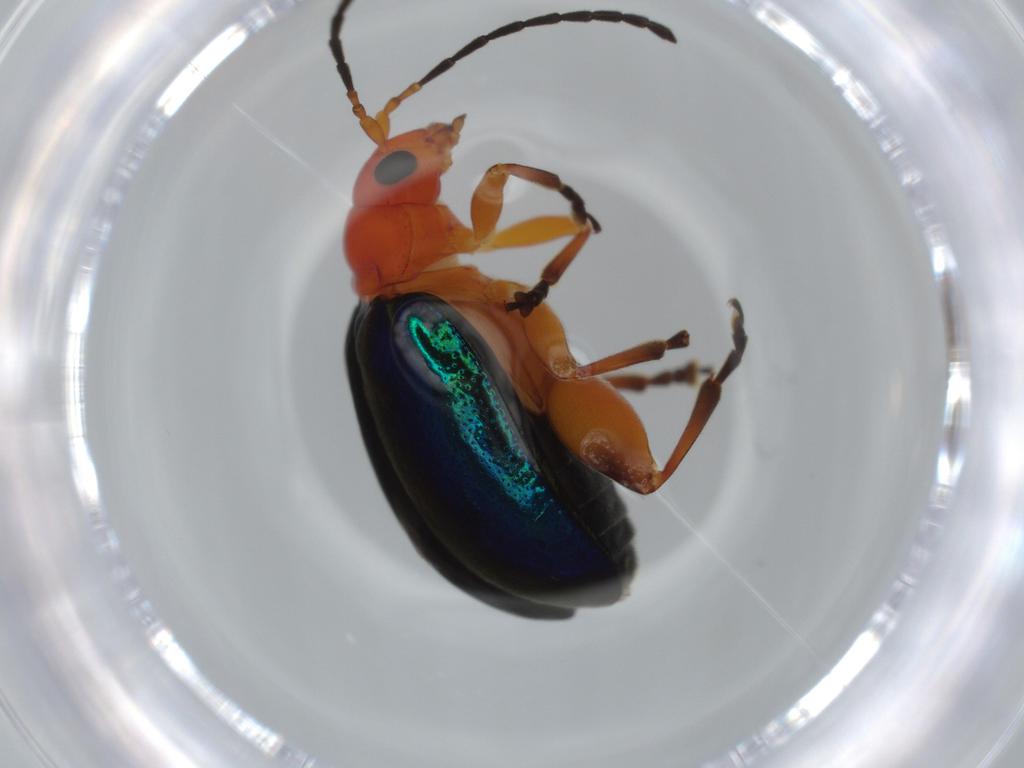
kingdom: Animalia
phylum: Arthropoda
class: Insecta
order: Coleoptera
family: Chrysomelidae
